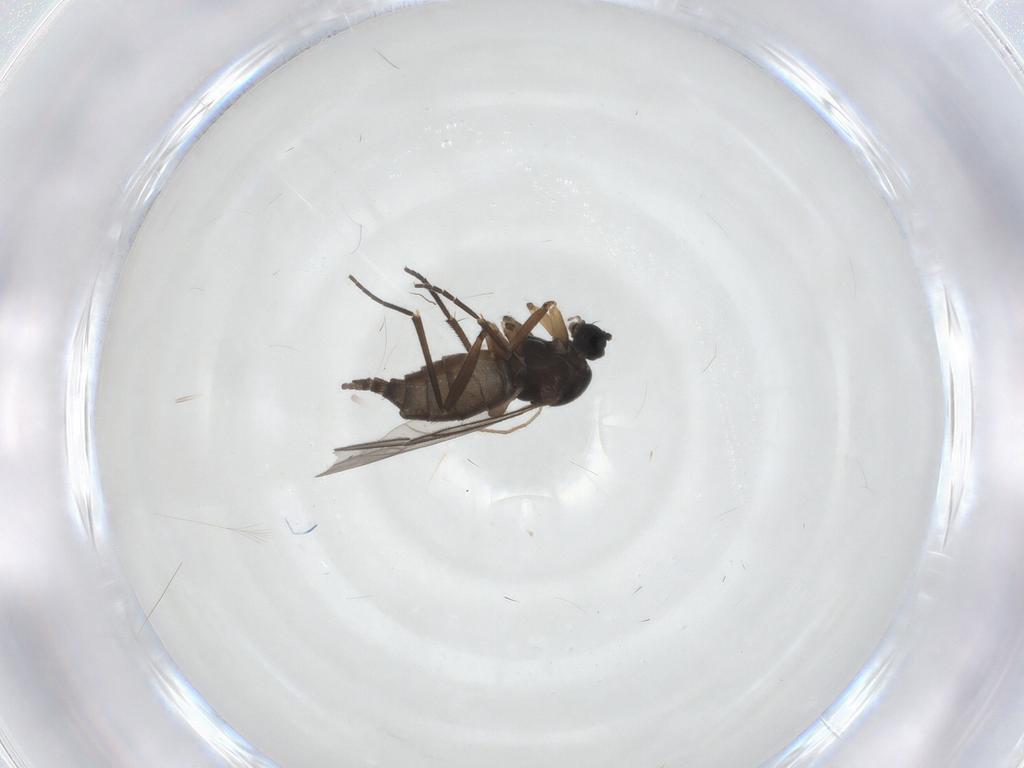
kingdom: Animalia
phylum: Arthropoda
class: Insecta
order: Diptera
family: Sciaridae
